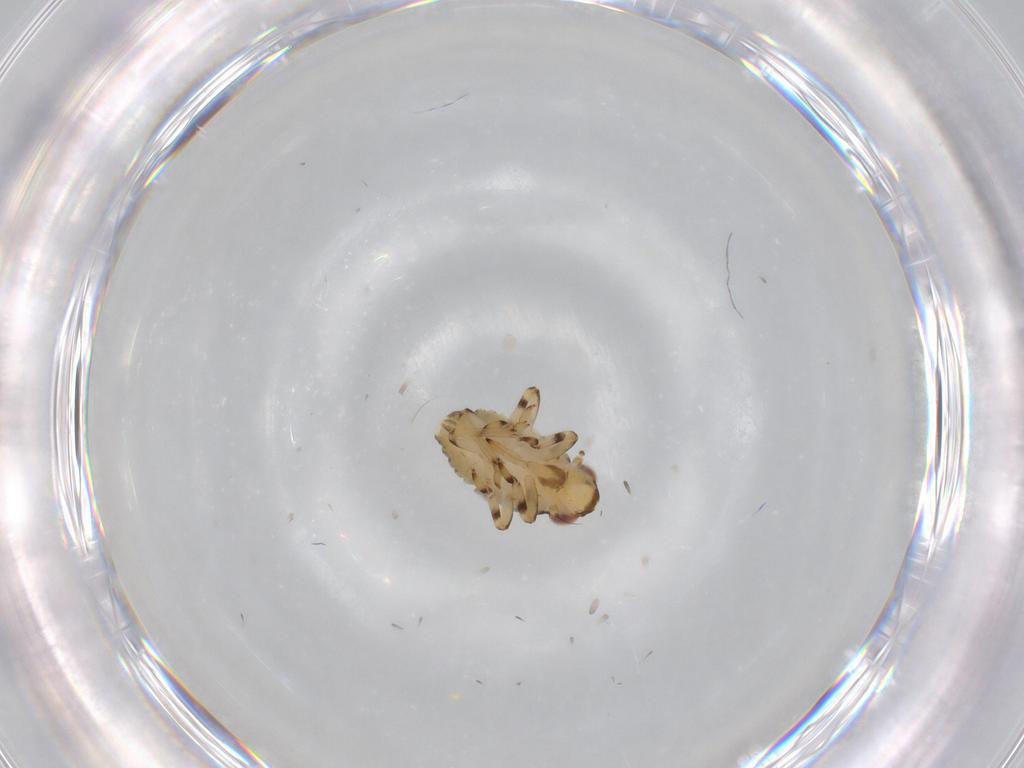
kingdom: Animalia
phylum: Arthropoda
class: Insecta
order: Hemiptera
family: Issidae
